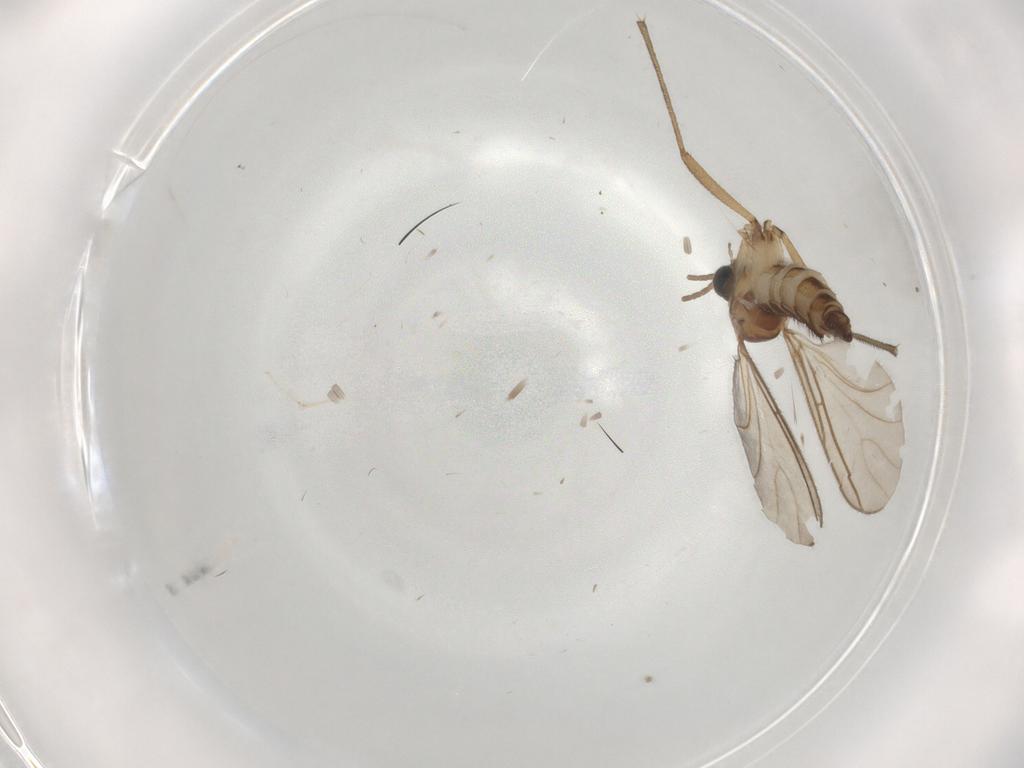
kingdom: Animalia
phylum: Arthropoda
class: Insecta
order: Diptera
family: Sciaridae
